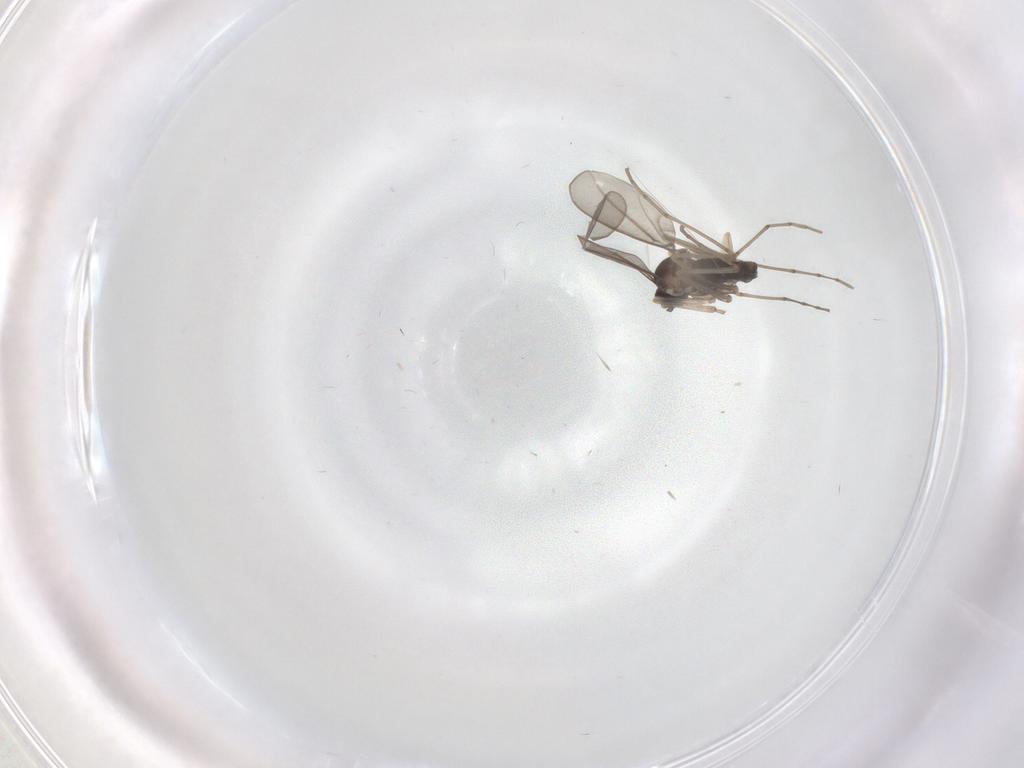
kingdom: Animalia
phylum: Arthropoda
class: Insecta
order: Diptera
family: Cecidomyiidae
